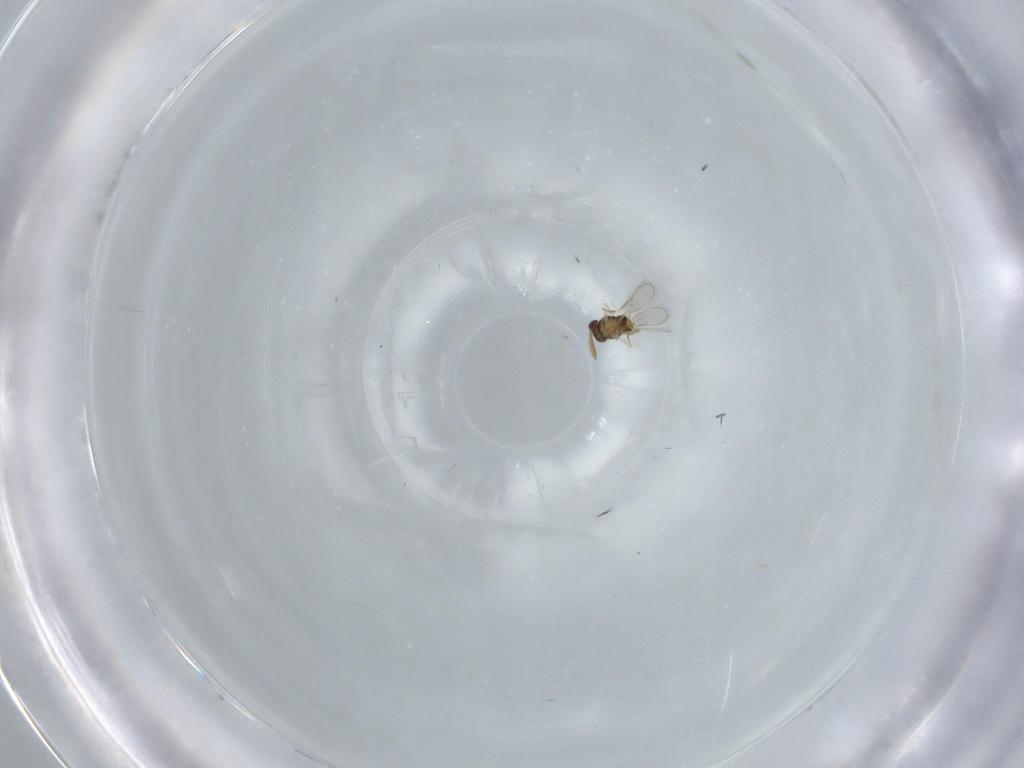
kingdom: Animalia
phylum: Arthropoda
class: Insecta
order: Hymenoptera
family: Aphelinidae
